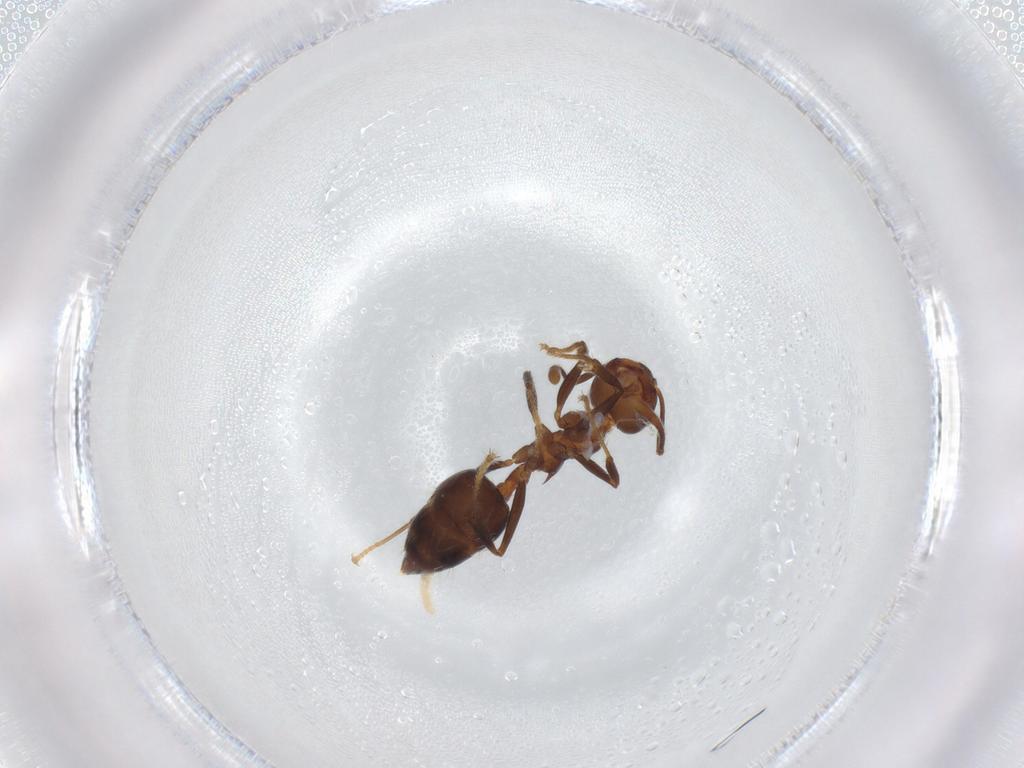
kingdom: Animalia
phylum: Arthropoda
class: Insecta
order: Hymenoptera
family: Formicidae
